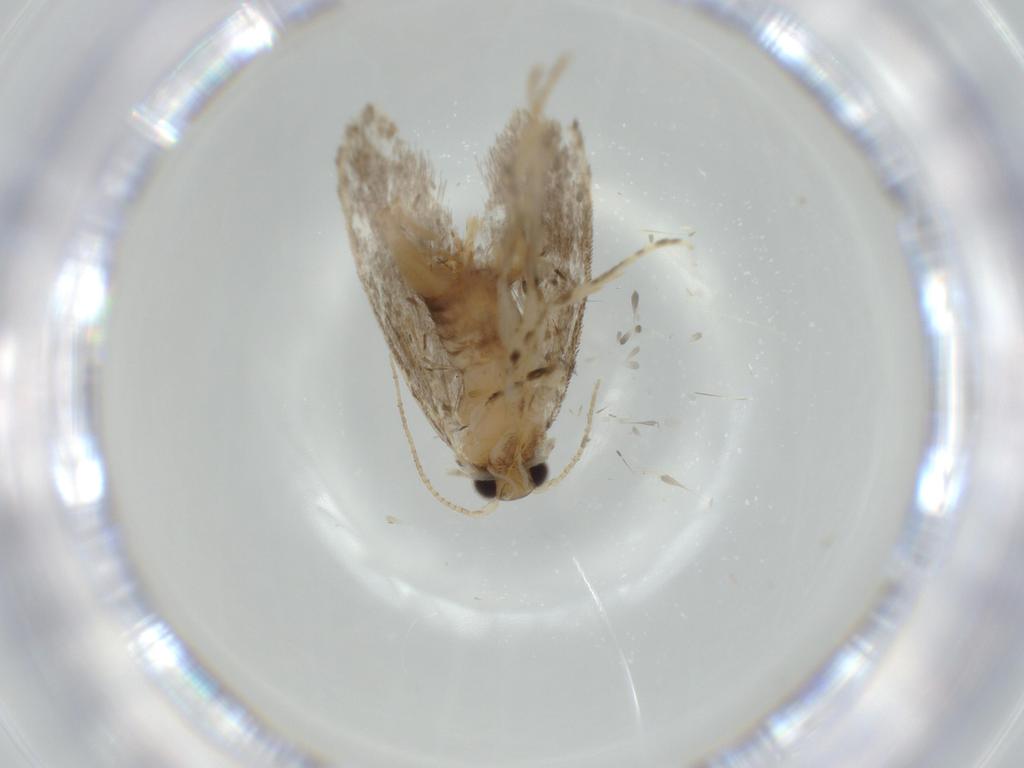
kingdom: Animalia
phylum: Arthropoda
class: Insecta
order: Lepidoptera
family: Tineidae
